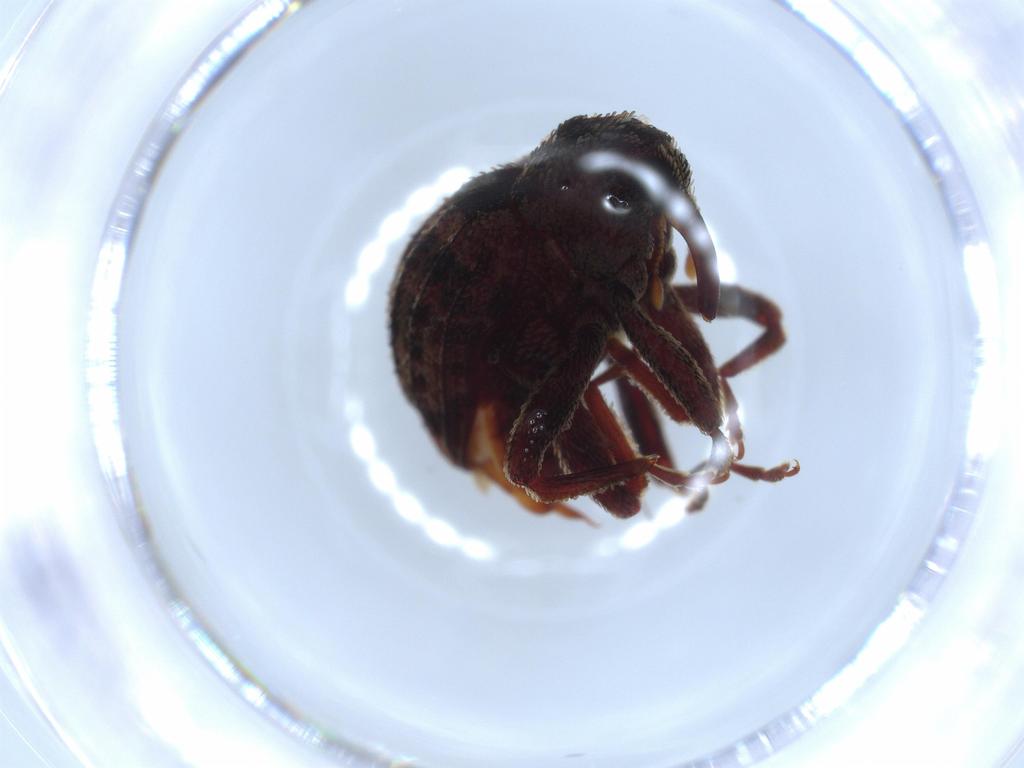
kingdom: Animalia
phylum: Arthropoda
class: Insecta
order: Coleoptera
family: Curculionidae
